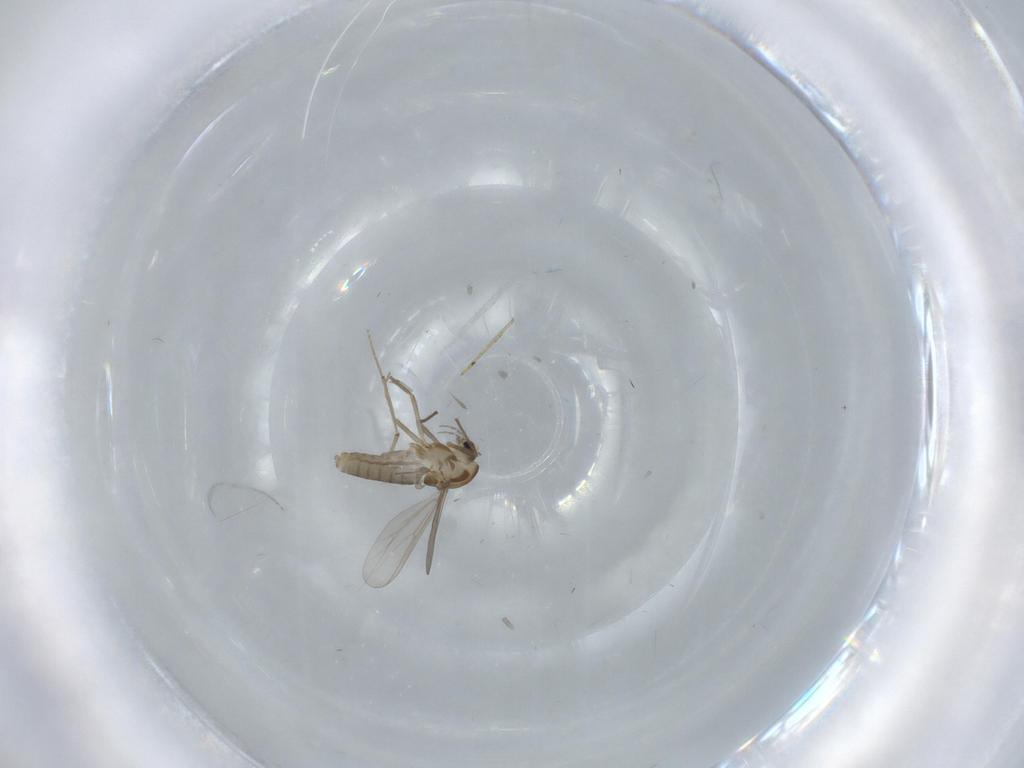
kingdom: Animalia
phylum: Arthropoda
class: Insecta
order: Diptera
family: Chironomidae
